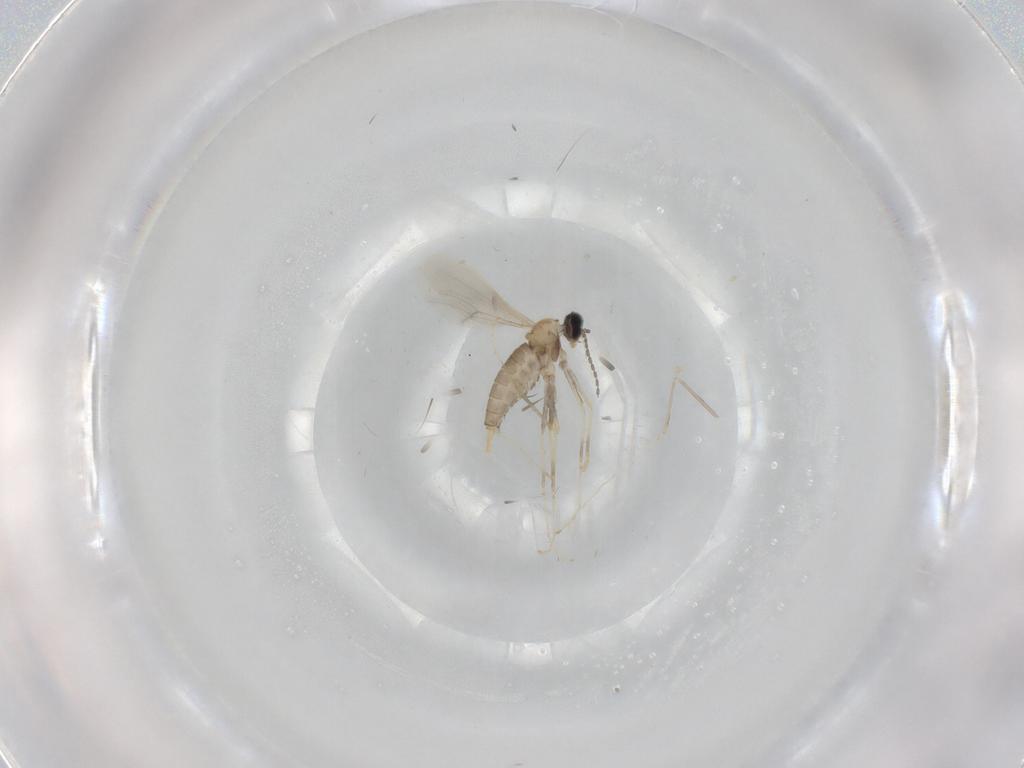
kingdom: Animalia
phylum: Arthropoda
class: Insecta
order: Diptera
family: Cecidomyiidae
